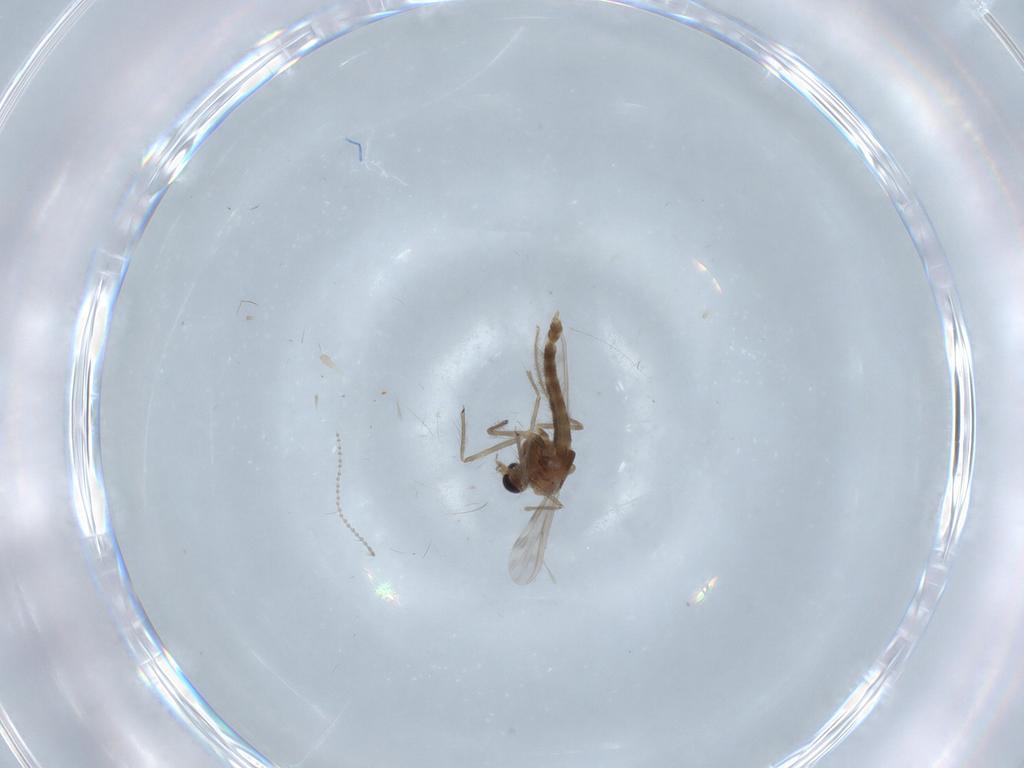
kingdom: Animalia
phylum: Arthropoda
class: Insecta
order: Diptera
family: Chironomidae
